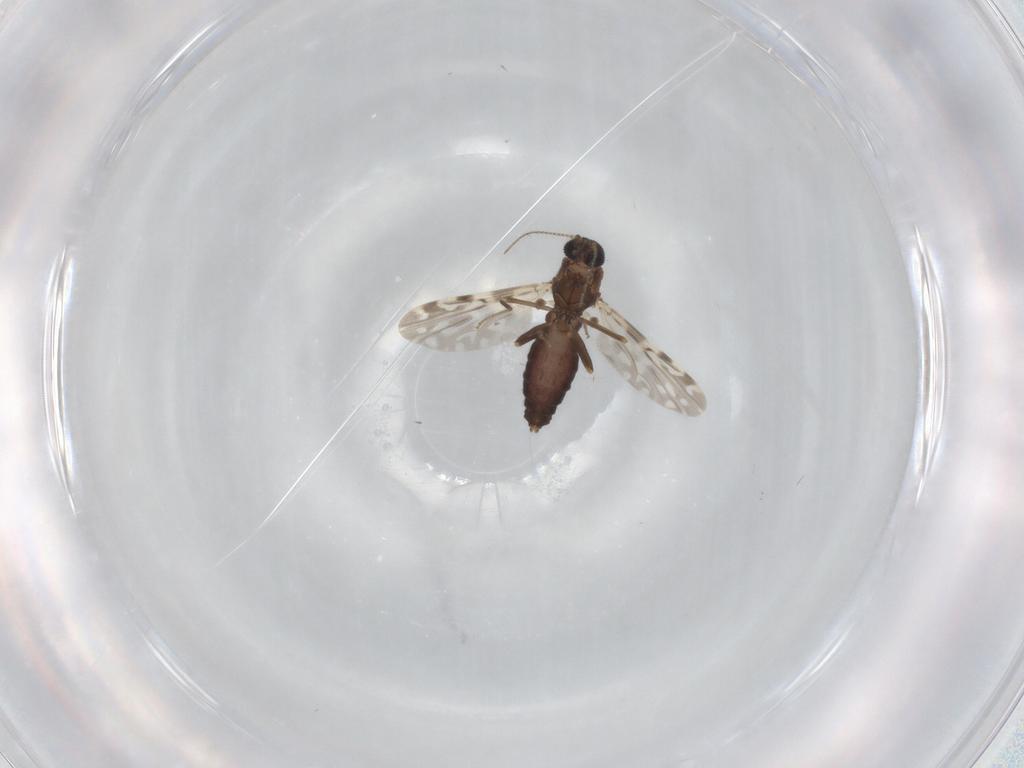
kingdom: Animalia
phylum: Arthropoda
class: Insecta
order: Diptera
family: Ceratopogonidae
